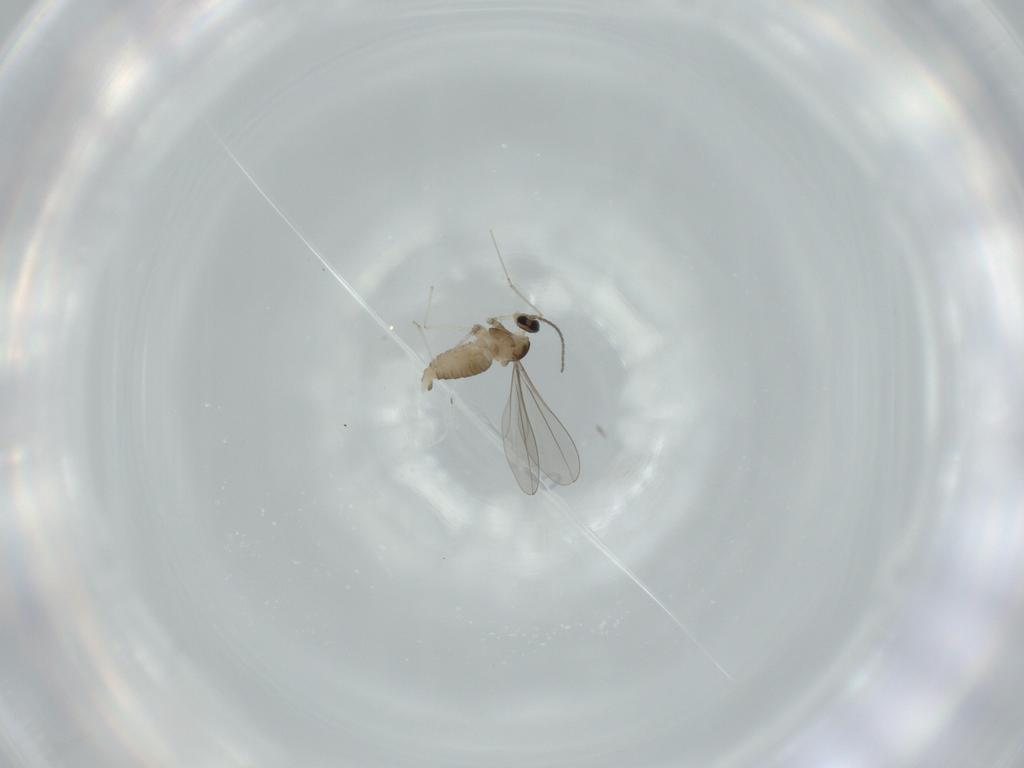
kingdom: Animalia
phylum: Arthropoda
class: Insecta
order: Diptera
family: Cecidomyiidae
